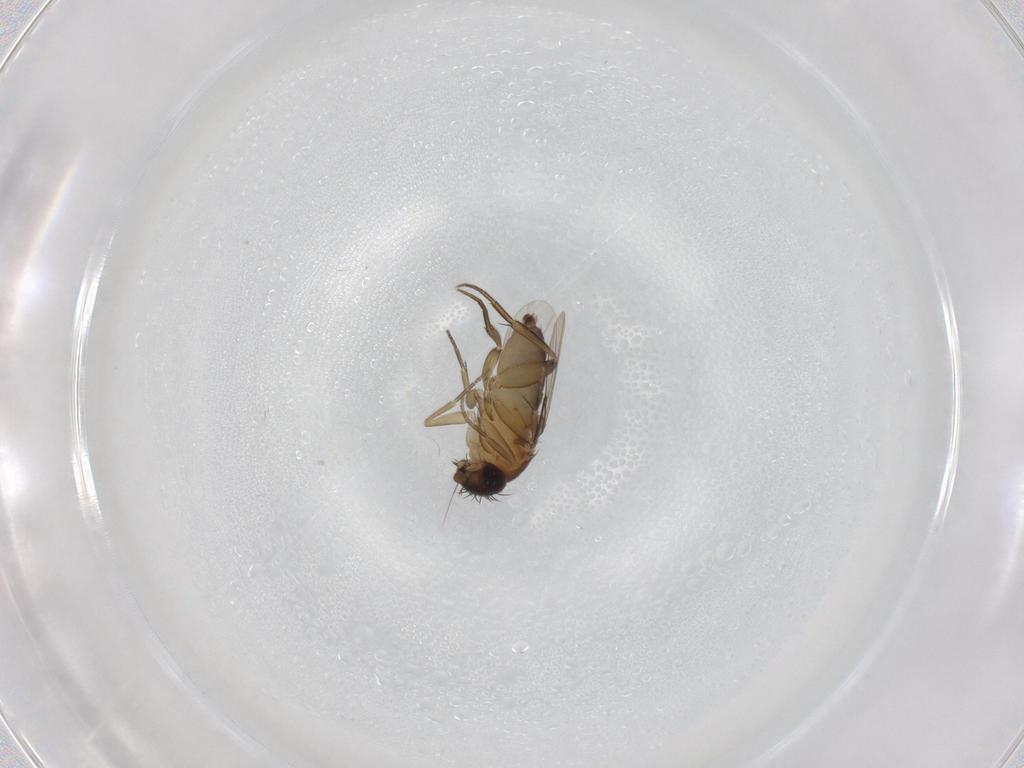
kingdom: Animalia
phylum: Arthropoda
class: Insecta
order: Diptera
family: Phoridae
